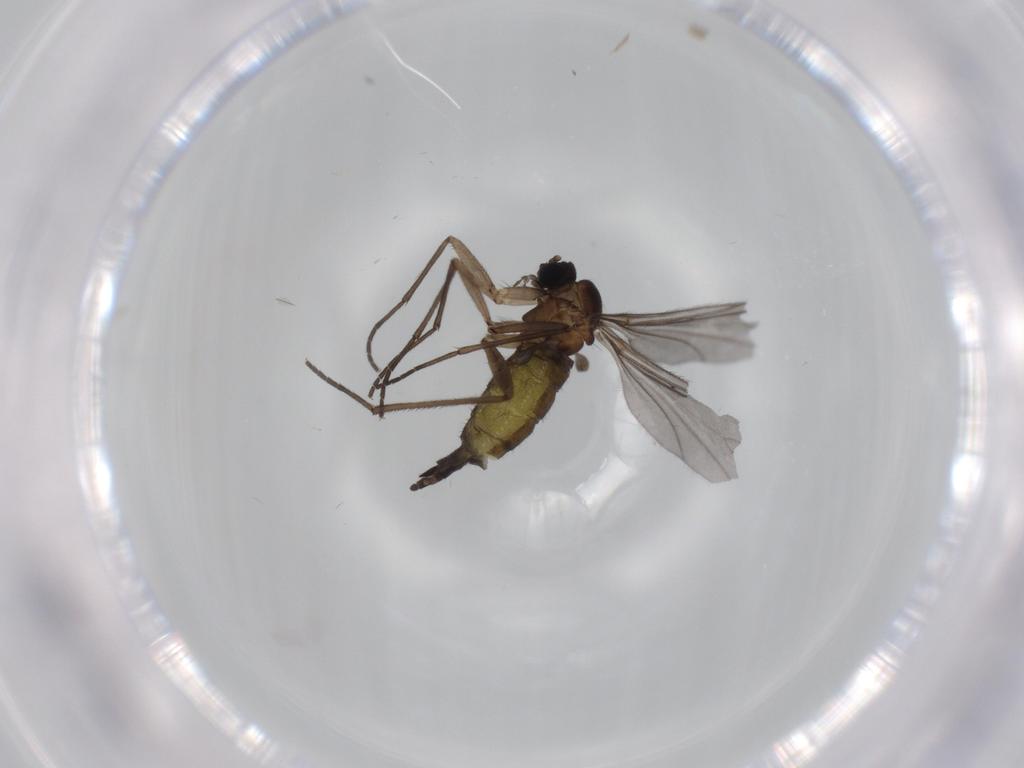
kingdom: Animalia
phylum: Arthropoda
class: Insecta
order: Diptera
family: Sciaridae
